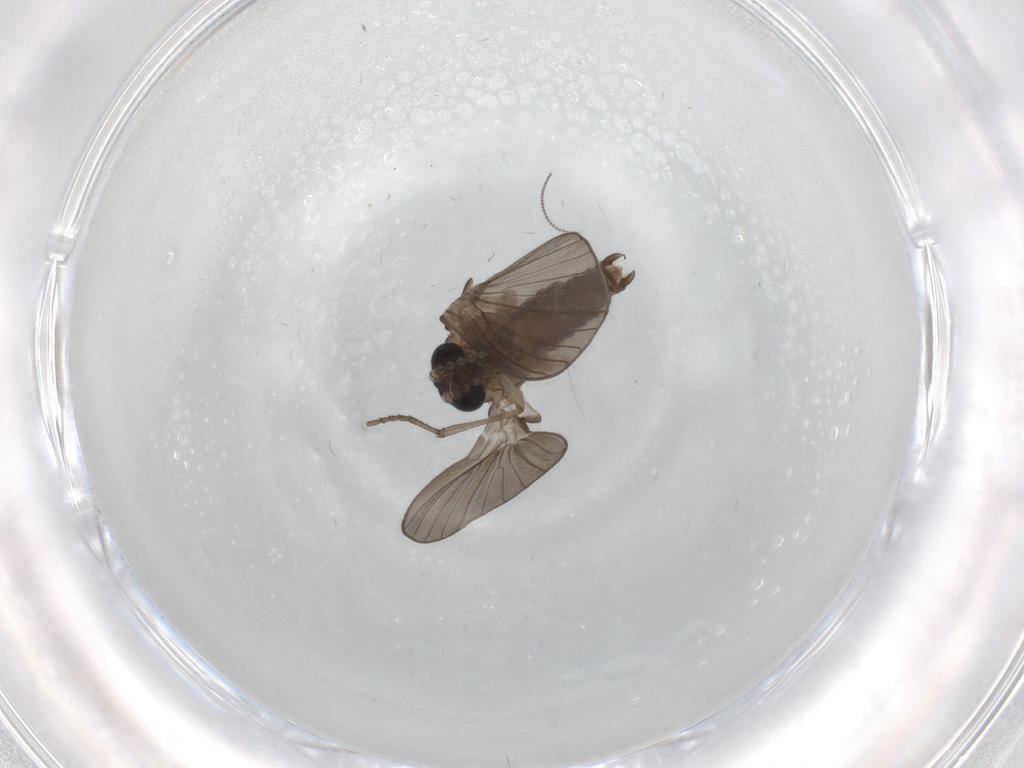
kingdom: Animalia
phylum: Arthropoda
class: Insecta
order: Diptera
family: Psychodidae
